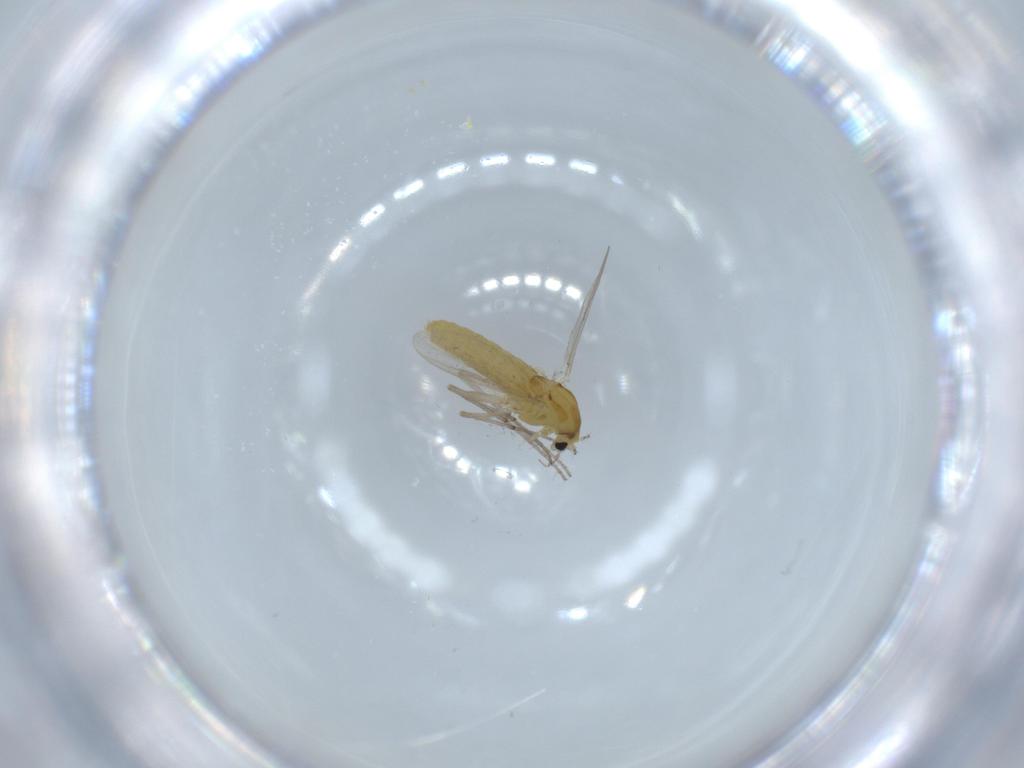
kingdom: Animalia
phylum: Arthropoda
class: Insecta
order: Diptera
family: Chironomidae
